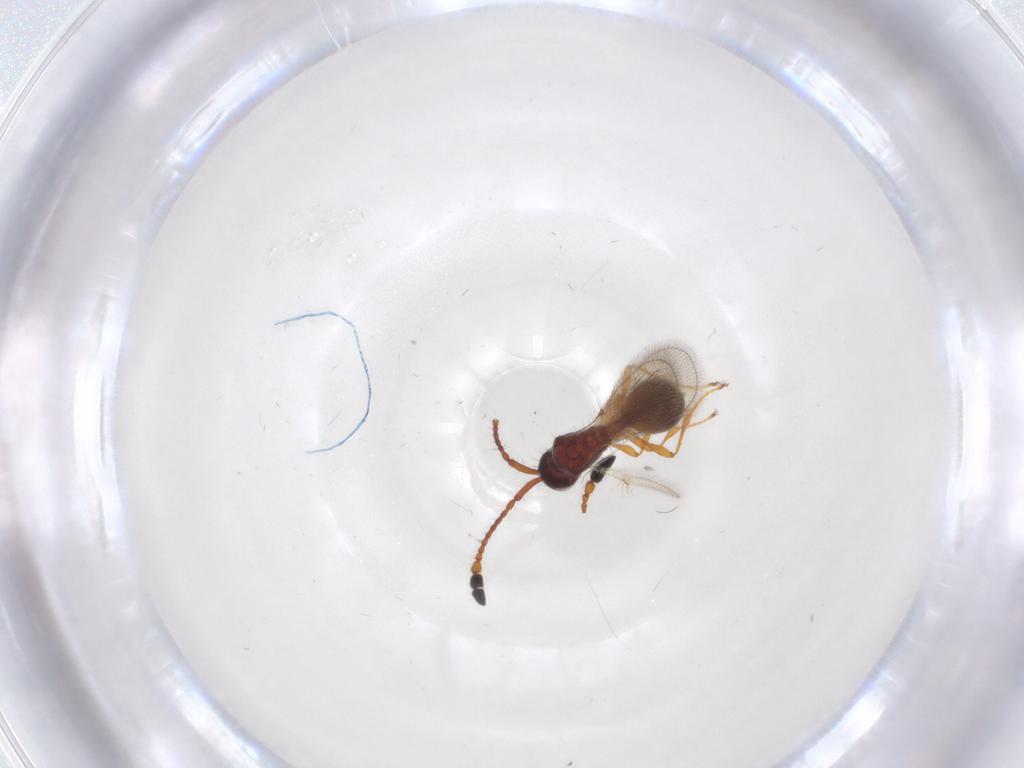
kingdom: Animalia
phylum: Arthropoda
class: Insecta
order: Hymenoptera
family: Diapriidae
